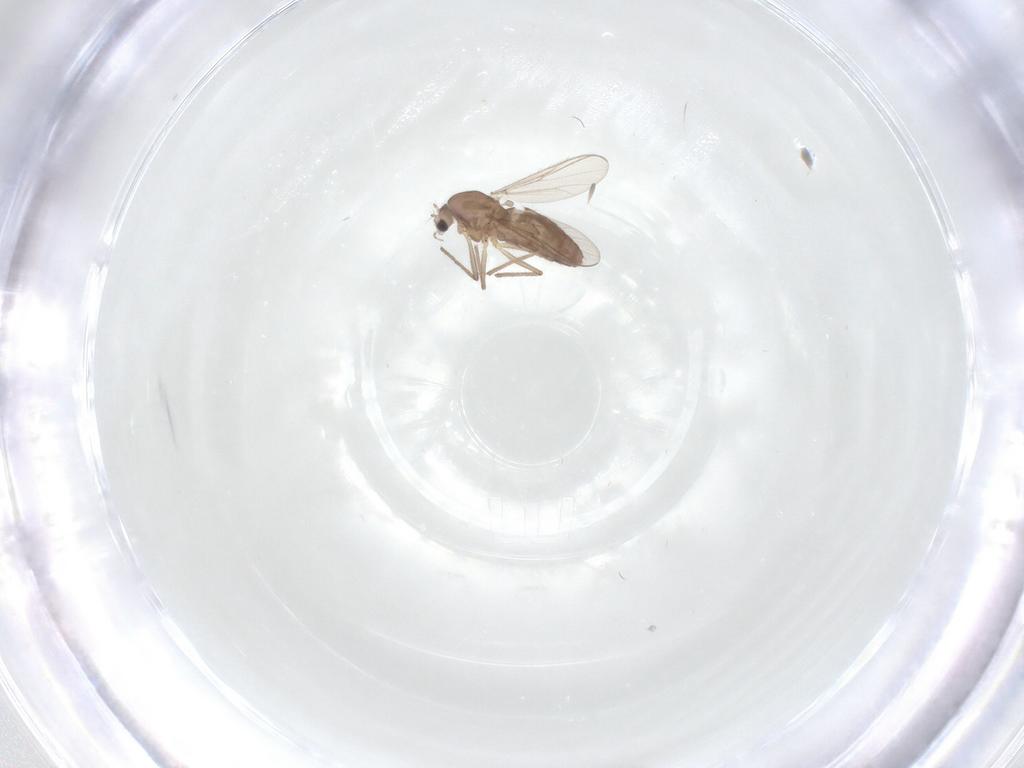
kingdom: Animalia
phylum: Arthropoda
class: Insecta
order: Diptera
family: Chironomidae
